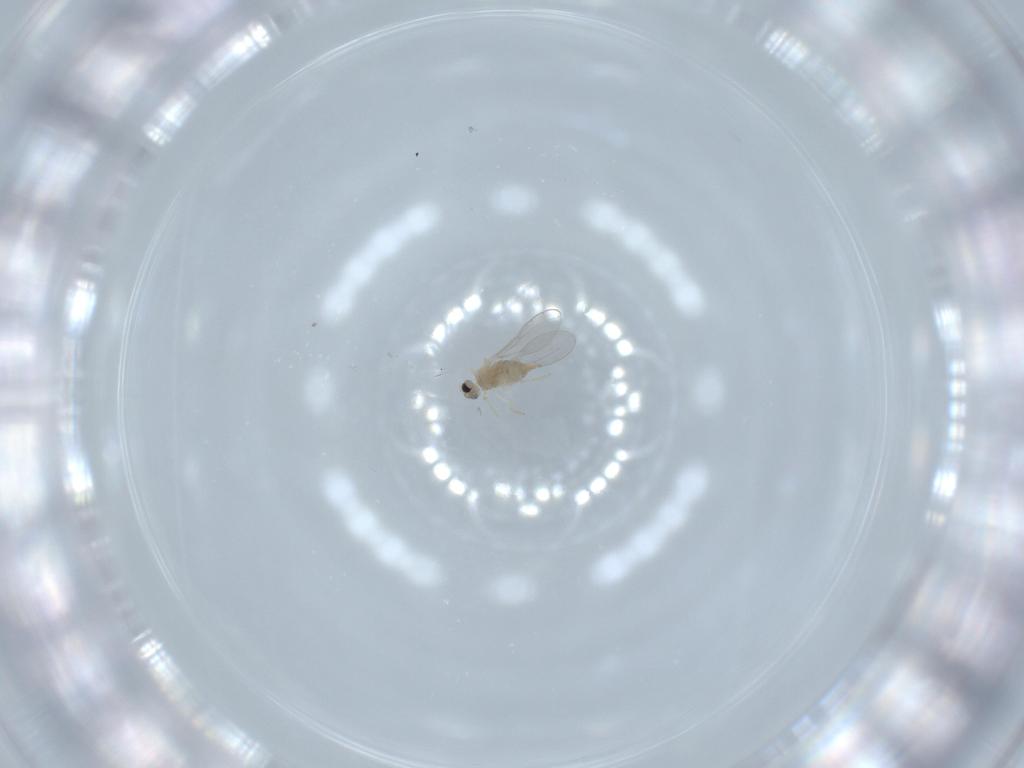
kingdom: Animalia
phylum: Arthropoda
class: Insecta
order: Diptera
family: Cecidomyiidae
